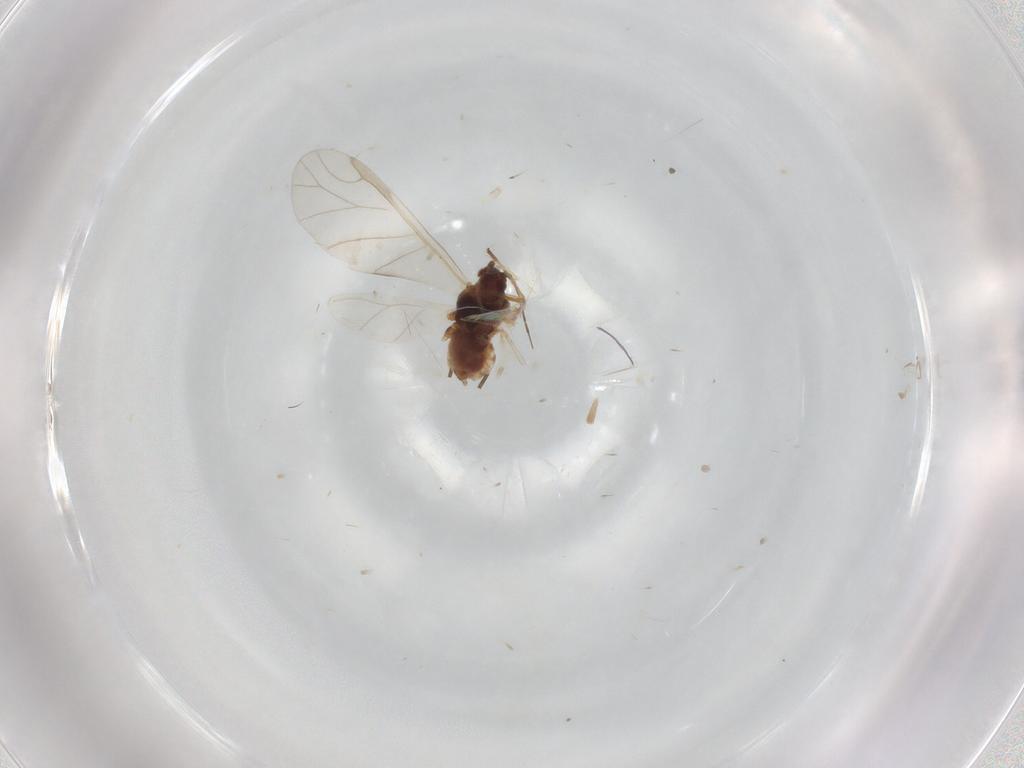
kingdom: Animalia
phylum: Arthropoda
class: Insecta
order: Hemiptera
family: Aphididae
